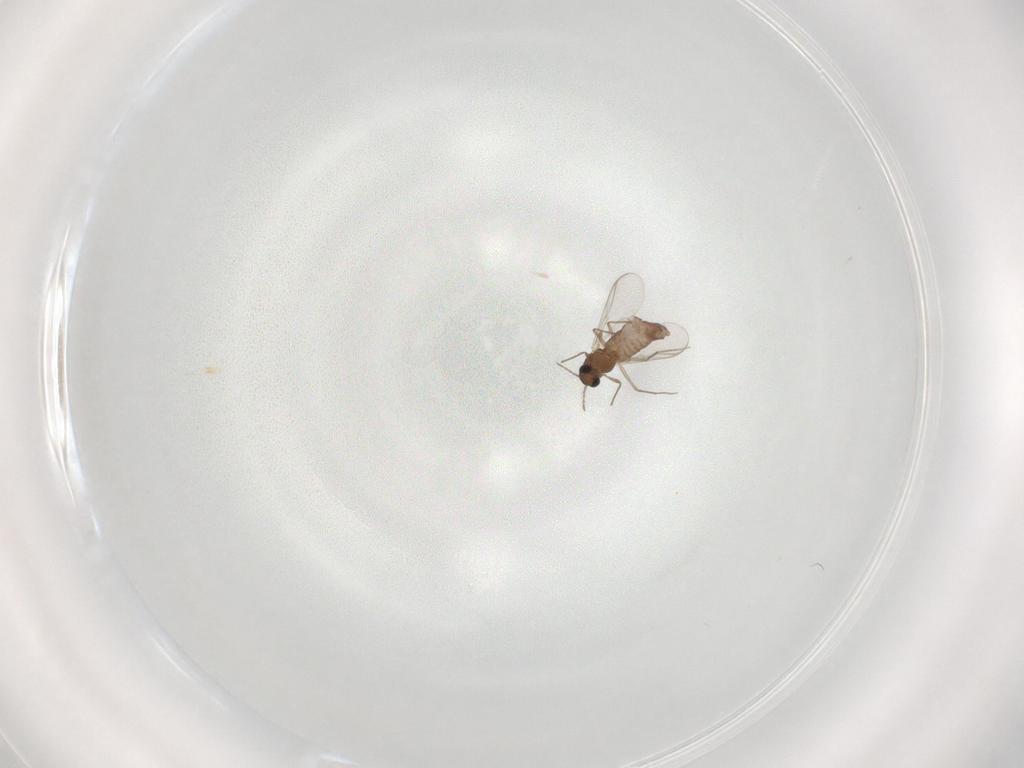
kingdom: Animalia
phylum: Arthropoda
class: Insecta
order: Diptera
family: Chironomidae
